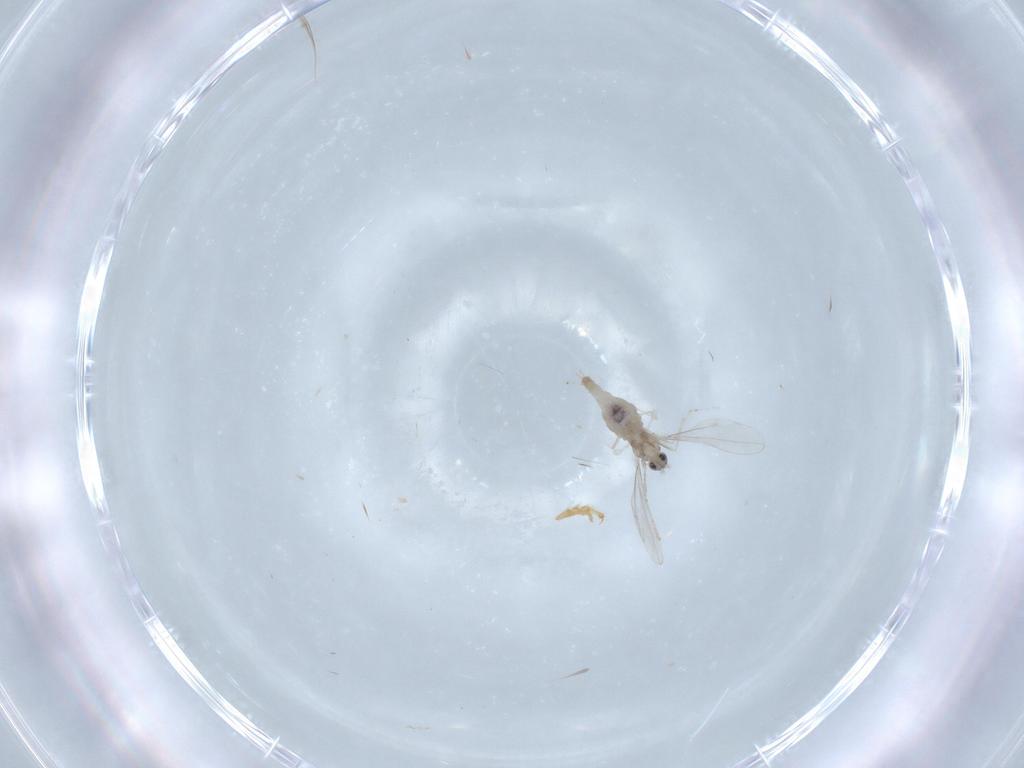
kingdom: Animalia
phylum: Arthropoda
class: Insecta
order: Diptera
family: Cecidomyiidae
